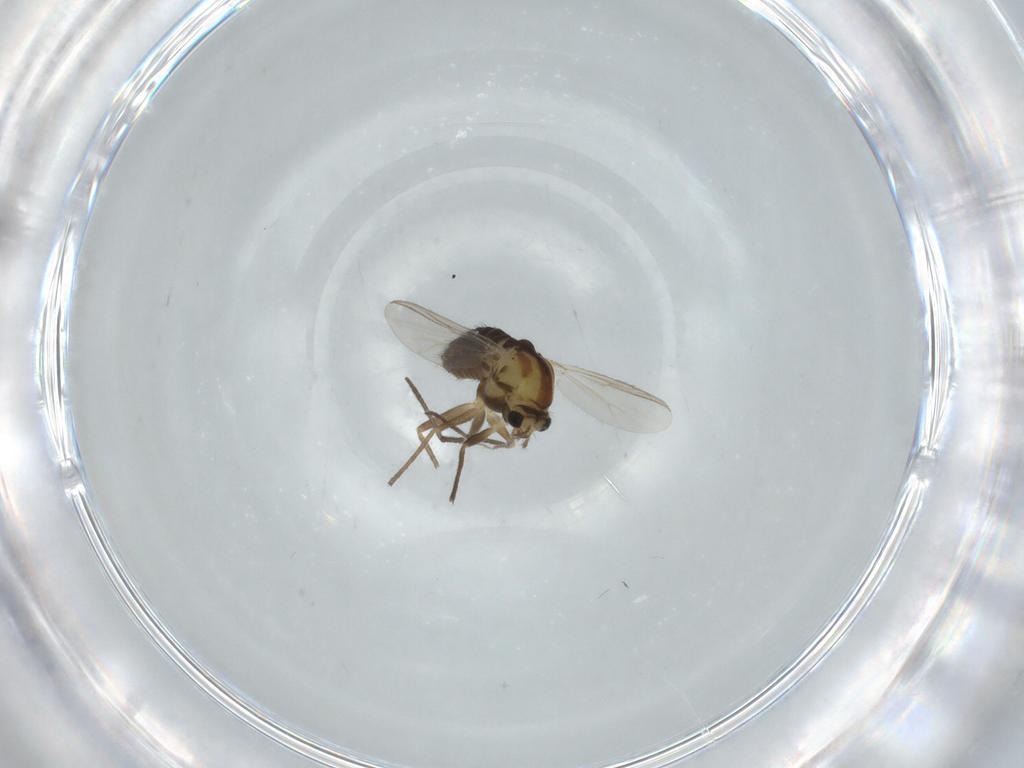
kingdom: Animalia
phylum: Arthropoda
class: Insecta
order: Diptera
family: Chironomidae
